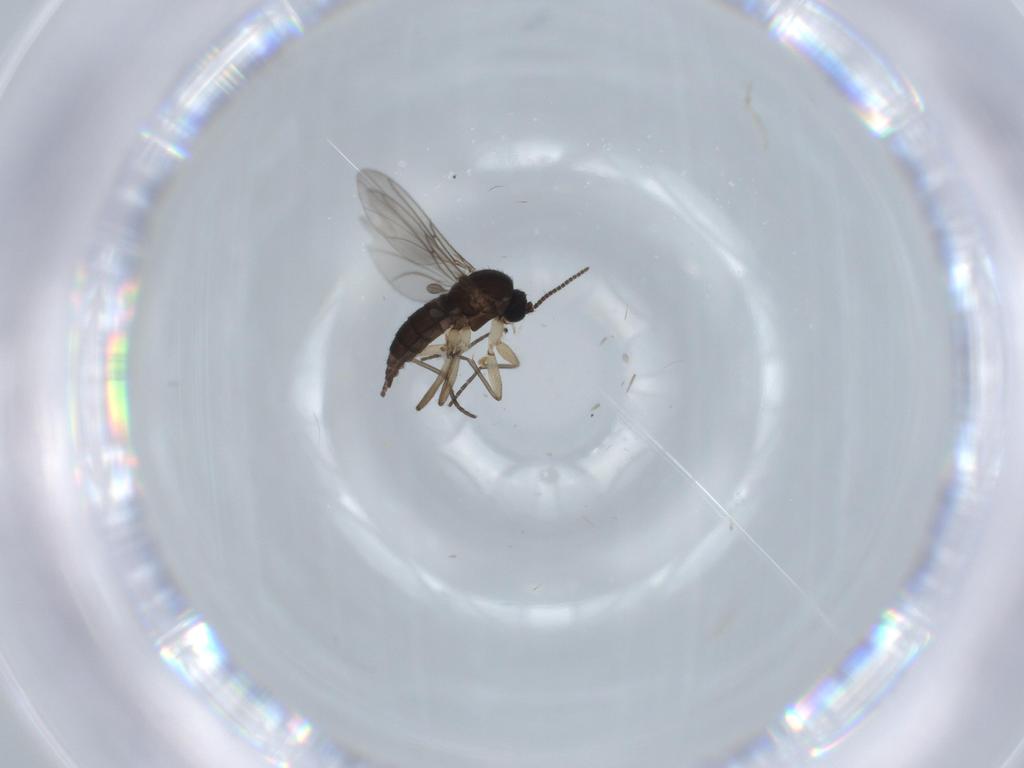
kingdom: Animalia
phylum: Arthropoda
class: Insecta
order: Diptera
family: Sciaridae
